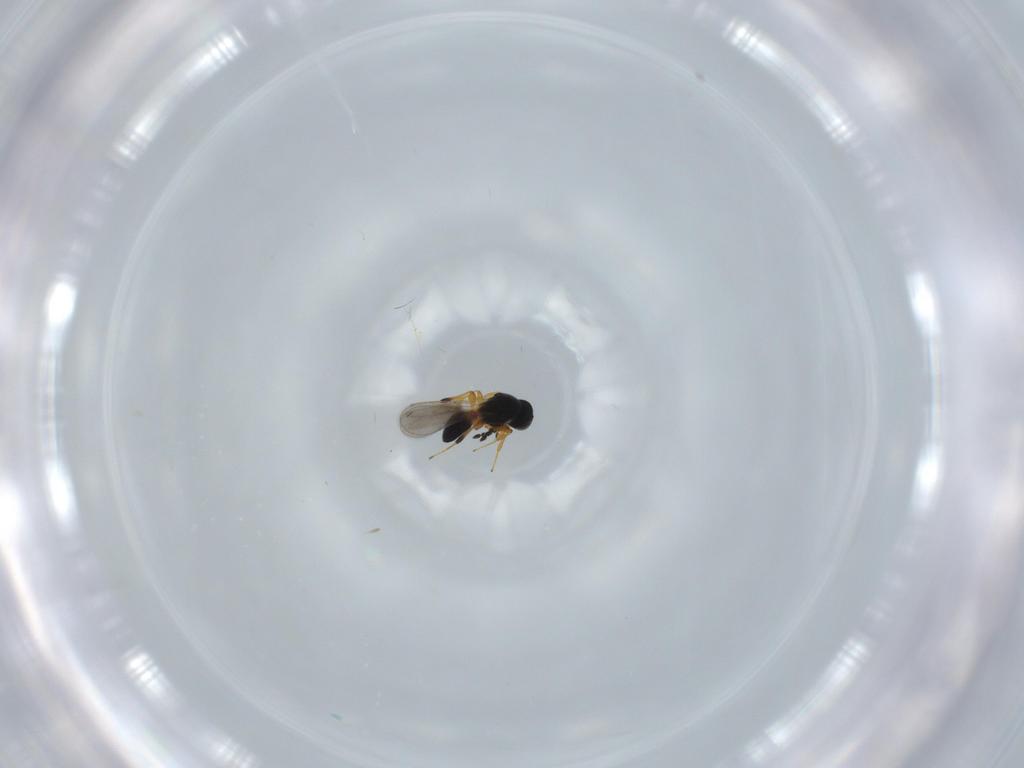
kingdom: Animalia
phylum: Arthropoda
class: Insecta
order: Hymenoptera
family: Platygastridae
